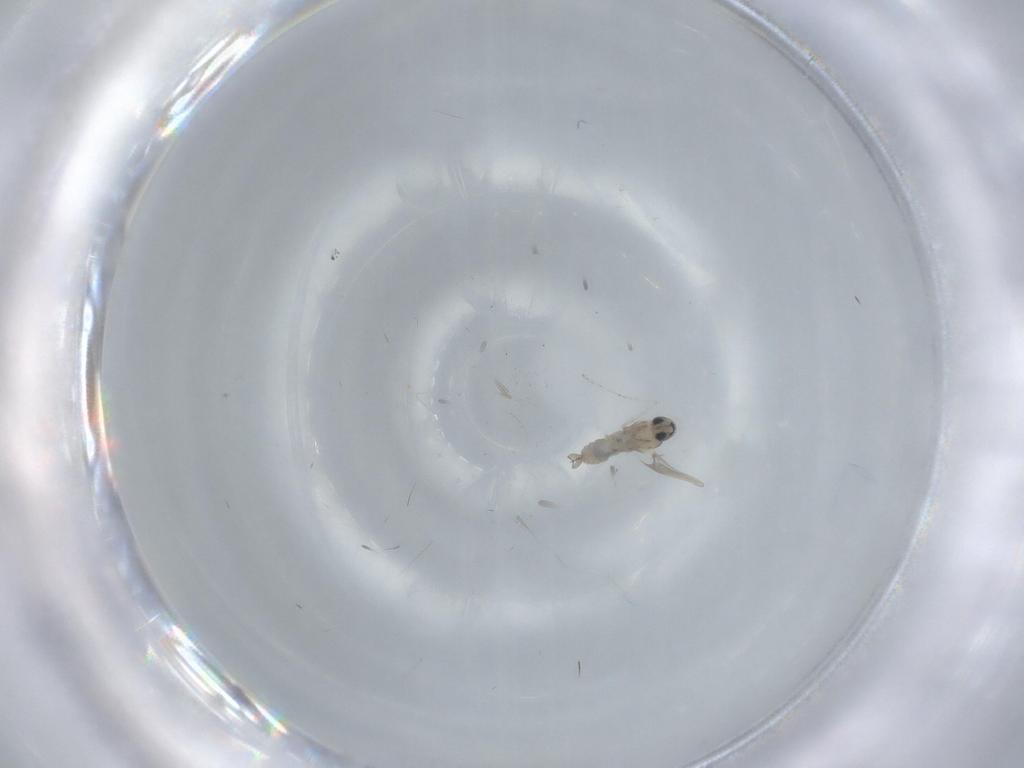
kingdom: Animalia
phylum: Arthropoda
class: Insecta
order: Diptera
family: Cecidomyiidae
